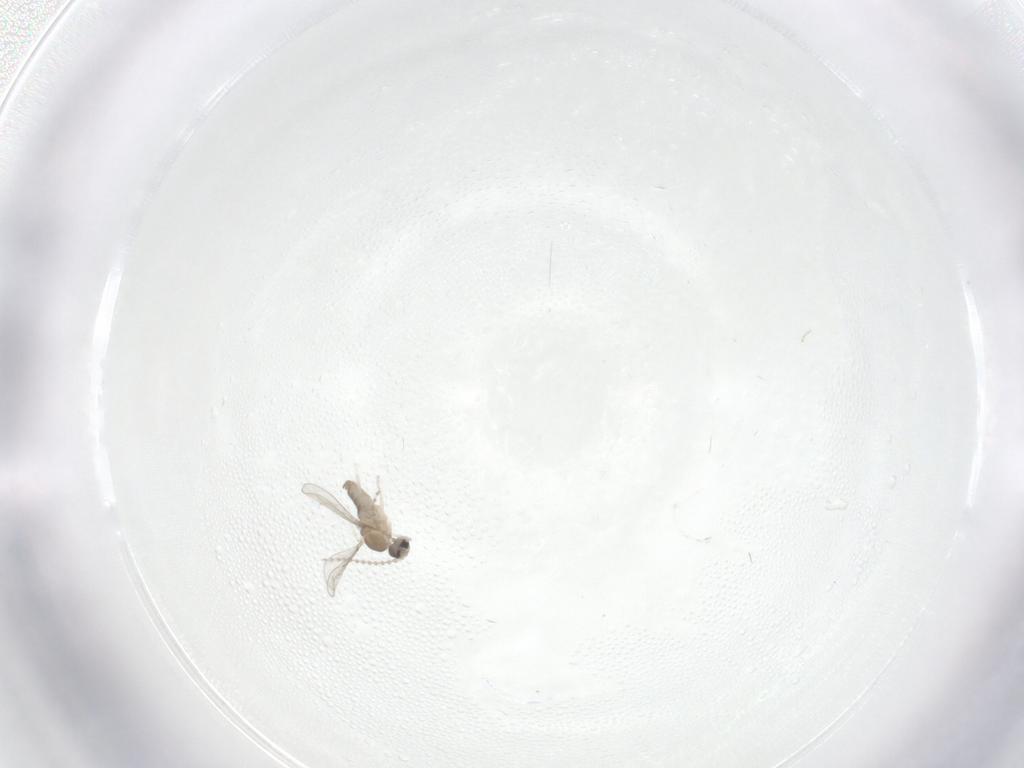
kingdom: Animalia
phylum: Arthropoda
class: Insecta
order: Diptera
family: Cecidomyiidae
